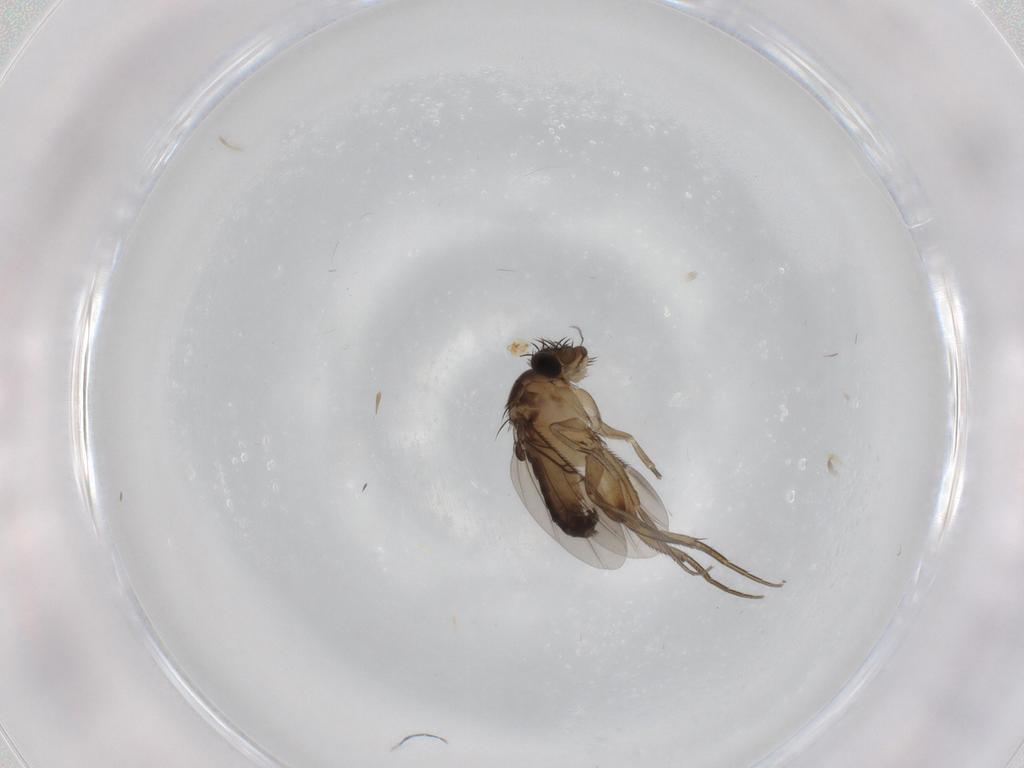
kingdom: Animalia
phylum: Arthropoda
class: Insecta
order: Diptera
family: Phoridae
